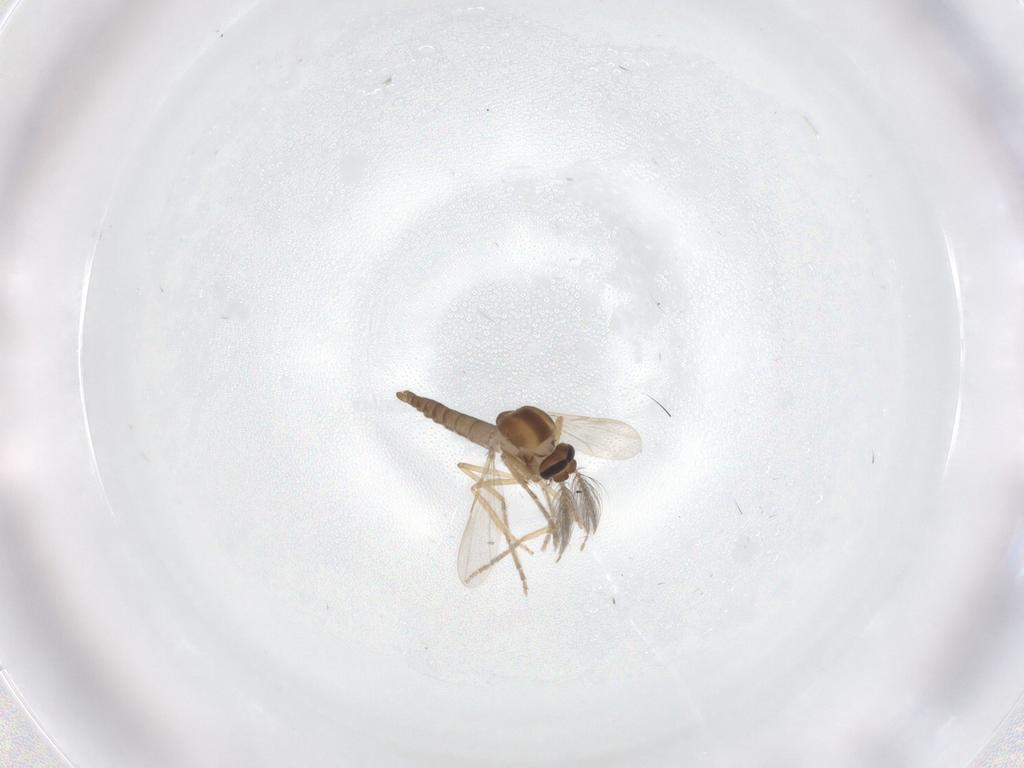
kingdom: Animalia
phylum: Arthropoda
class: Insecta
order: Diptera
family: Ceratopogonidae
